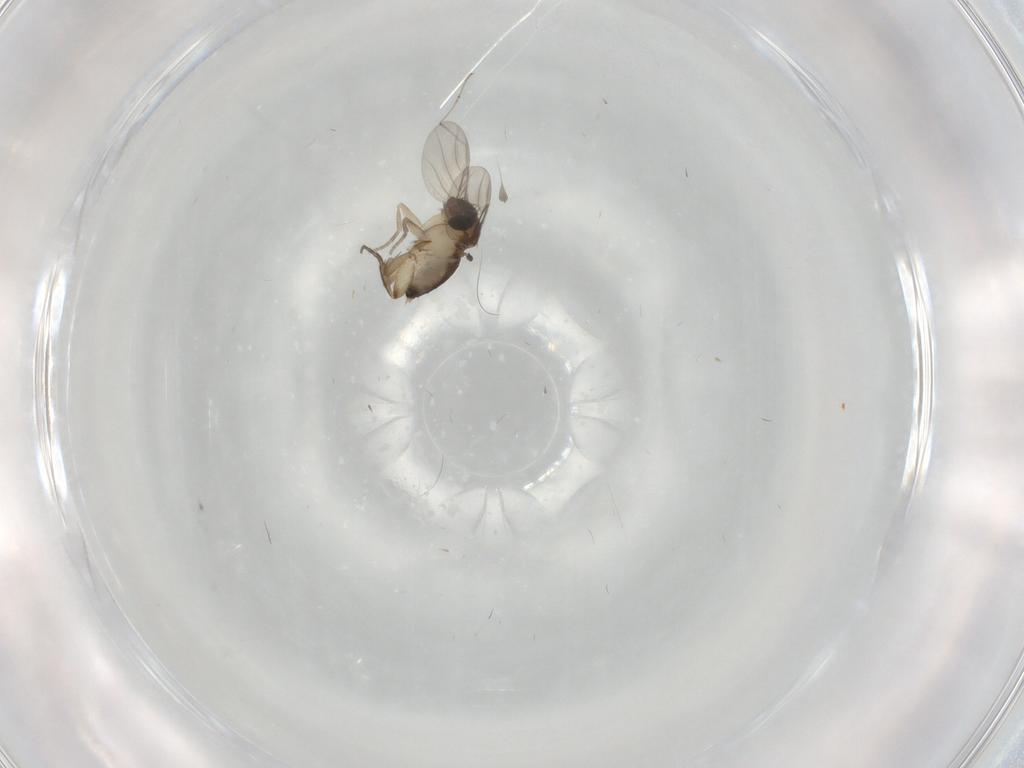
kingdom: Animalia
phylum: Arthropoda
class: Insecta
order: Diptera
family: Phoridae
